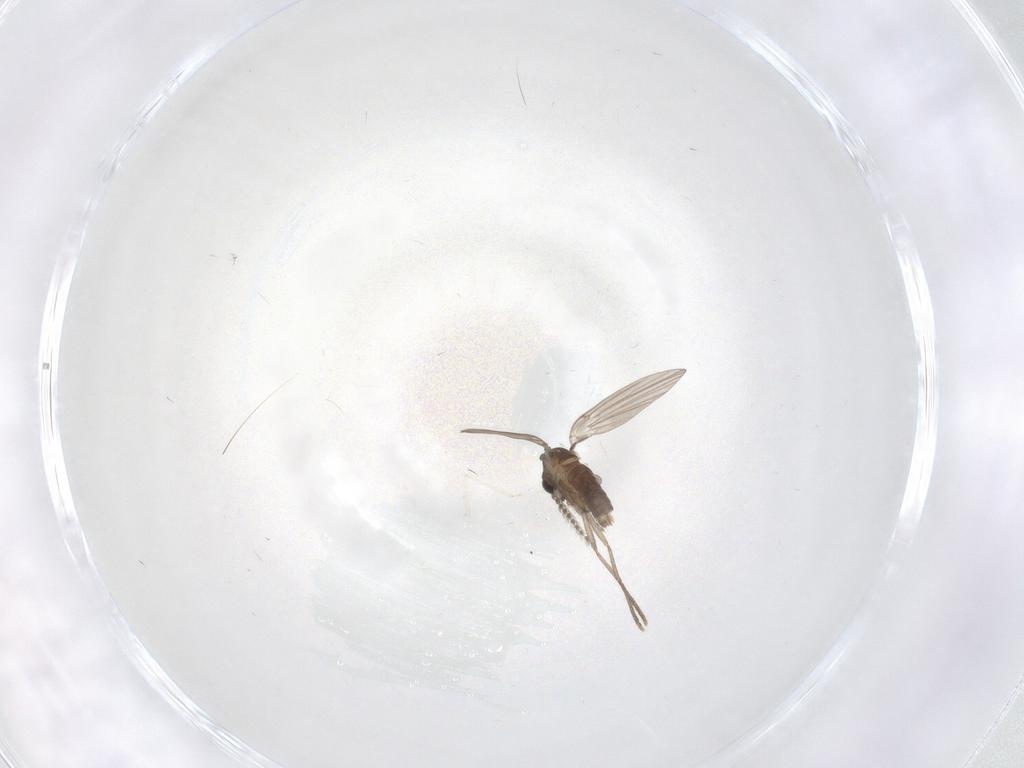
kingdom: Animalia
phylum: Arthropoda
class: Insecta
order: Diptera
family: Psychodidae
